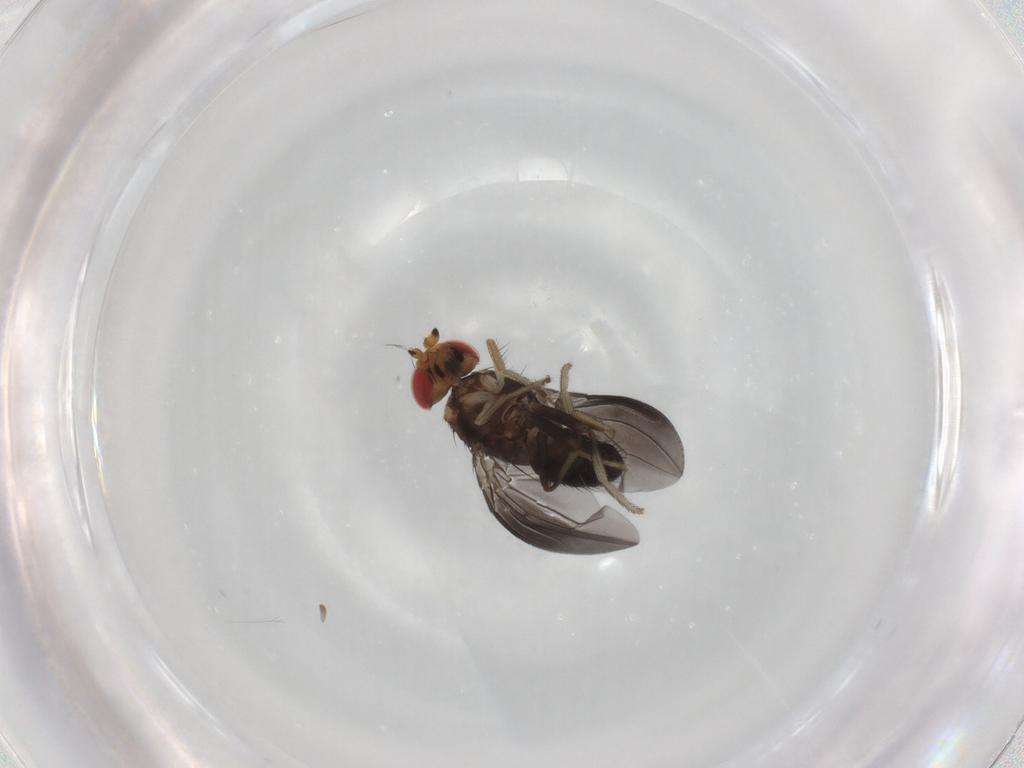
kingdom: Animalia
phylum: Arthropoda
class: Insecta
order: Diptera
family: Drosophilidae
